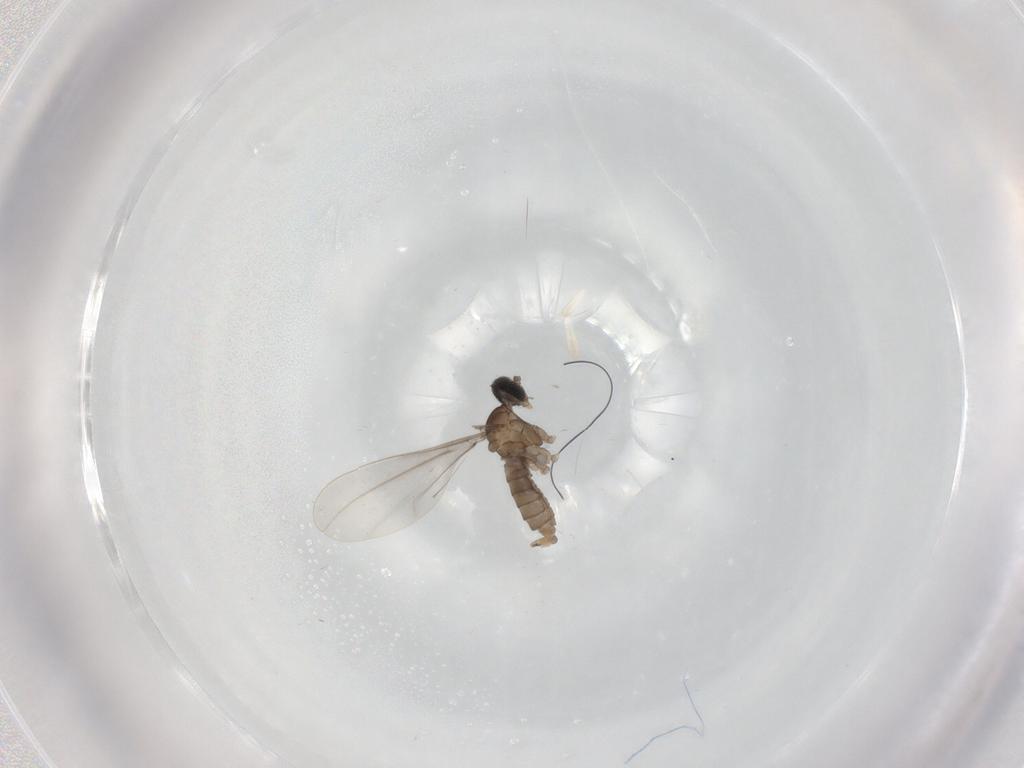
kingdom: Animalia
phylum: Arthropoda
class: Insecta
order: Diptera
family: Cecidomyiidae
